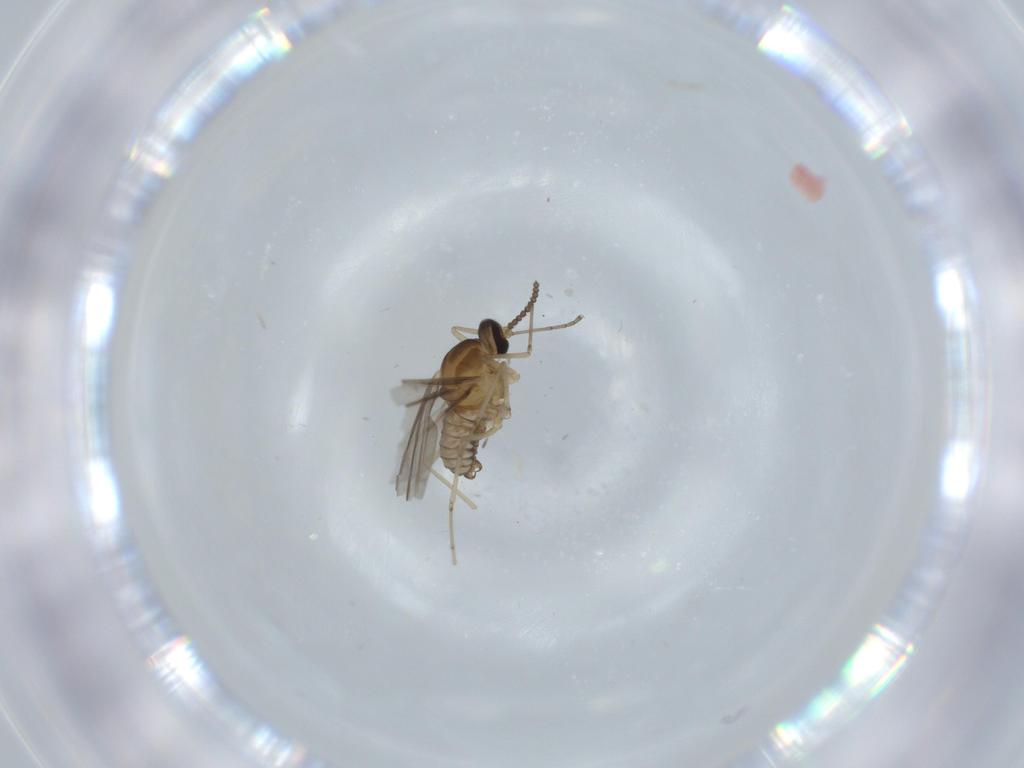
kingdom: Animalia
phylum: Arthropoda
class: Insecta
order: Diptera
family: Cecidomyiidae
